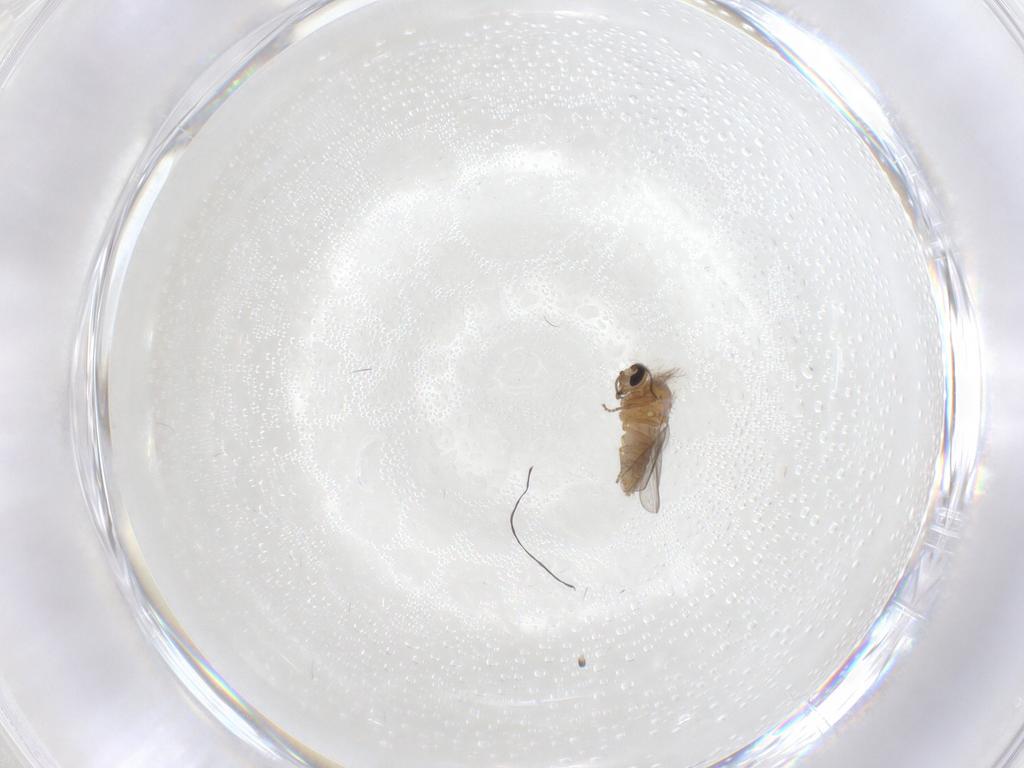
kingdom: Animalia
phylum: Arthropoda
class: Insecta
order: Diptera
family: Ceratopogonidae
